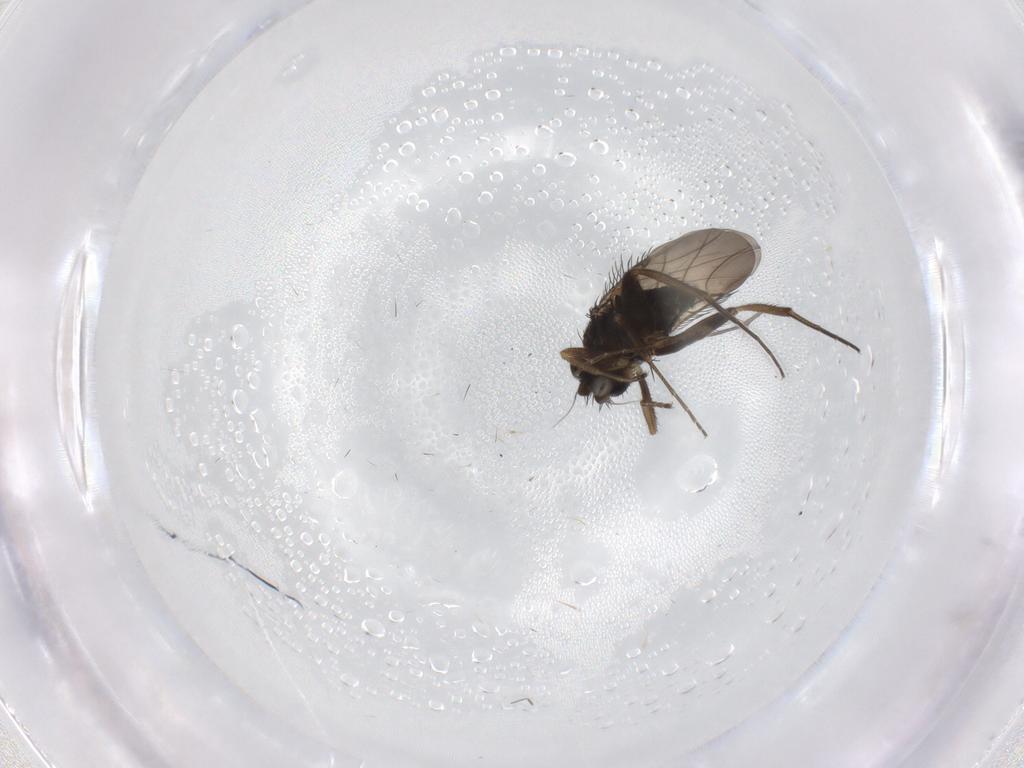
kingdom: Animalia
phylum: Arthropoda
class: Insecta
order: Diptera
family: Phoridae
